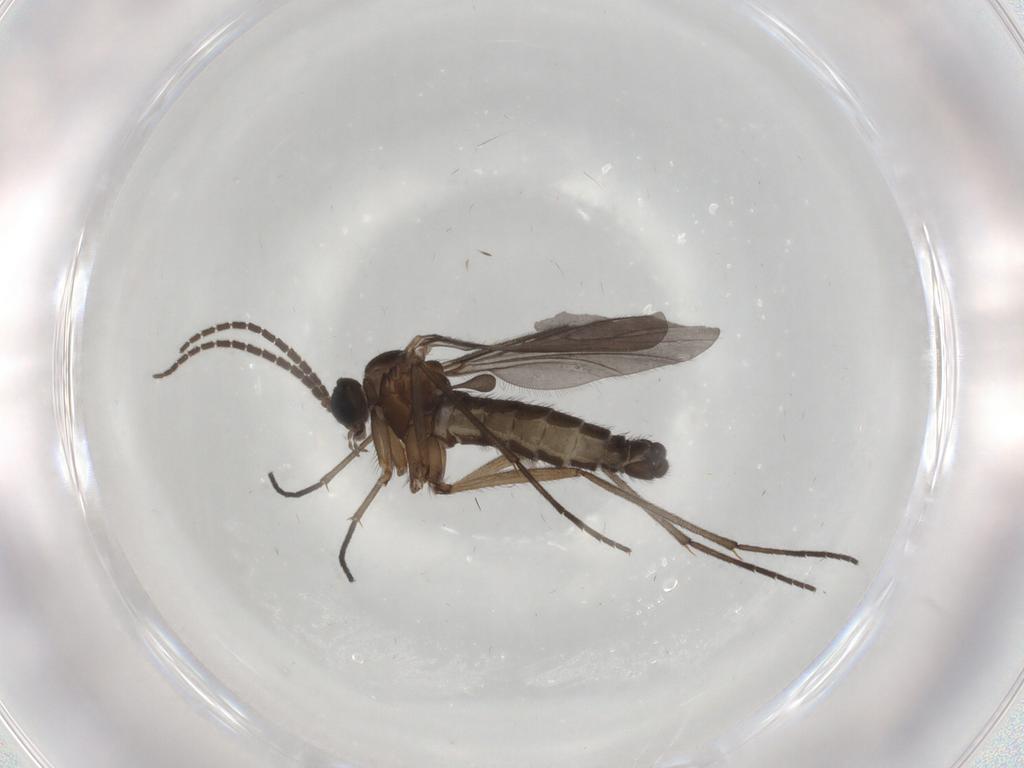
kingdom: Animalia
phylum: Arthropoda
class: Insecta
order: Diptera
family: Sciaridae
